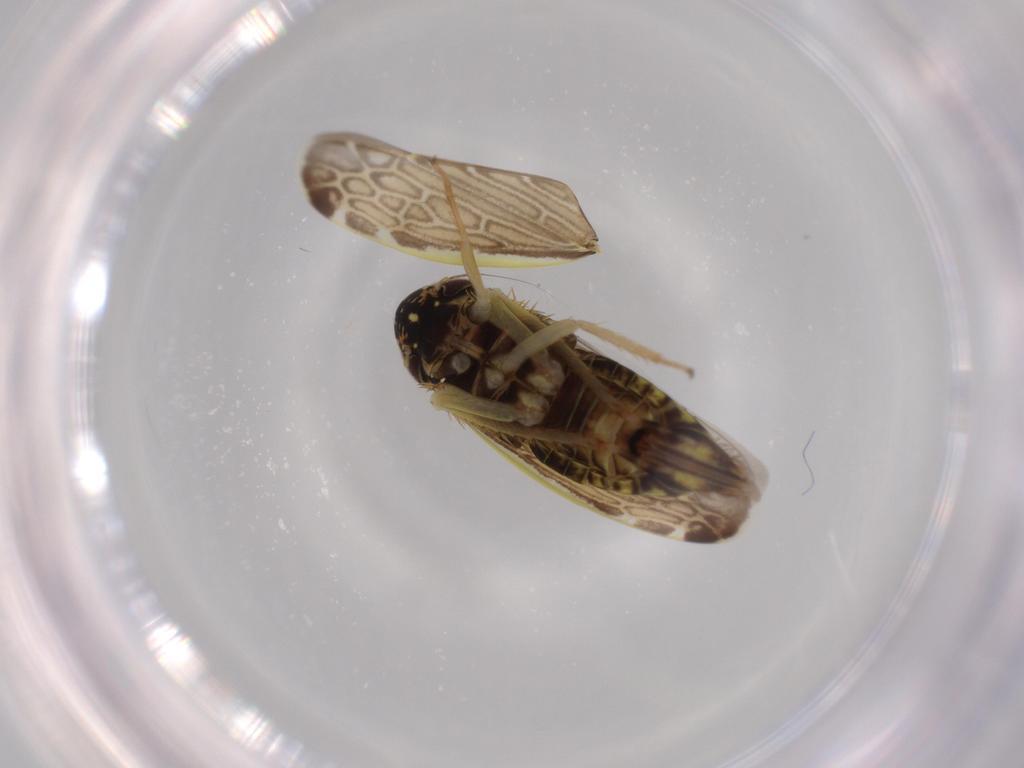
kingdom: Animalia
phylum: Arthropoda
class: Insecta
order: Hemiptera
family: Cicadellidae
